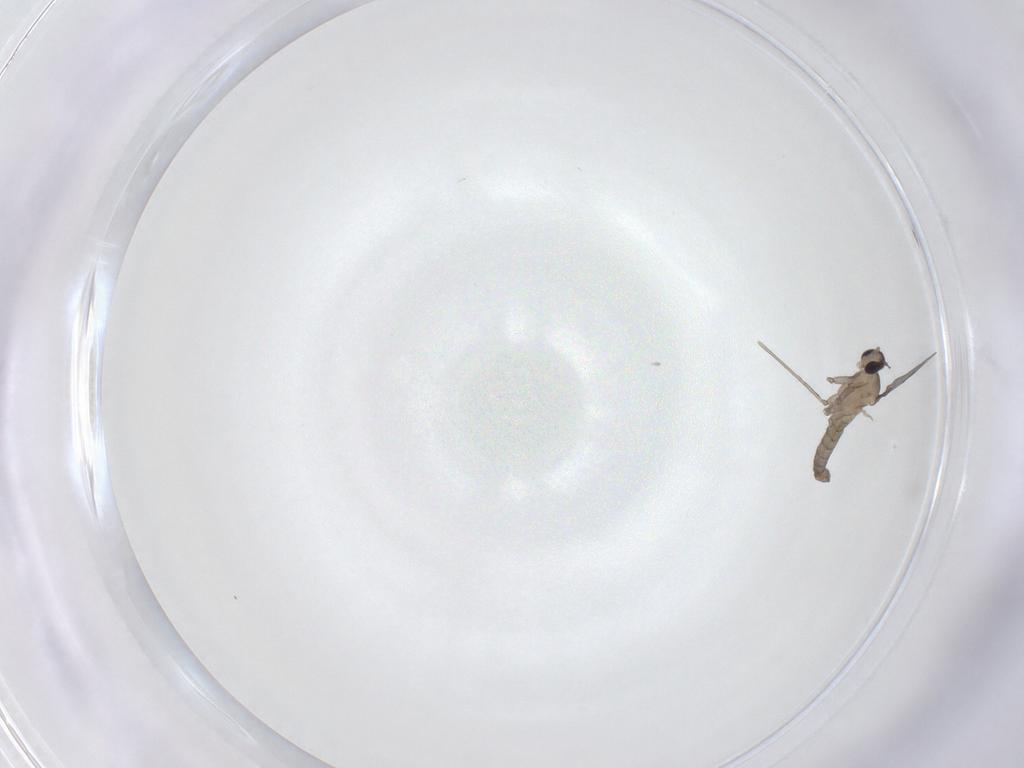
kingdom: Animalia
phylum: Arthropoda
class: Insecta
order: Diptera
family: Cecidomyiidae
